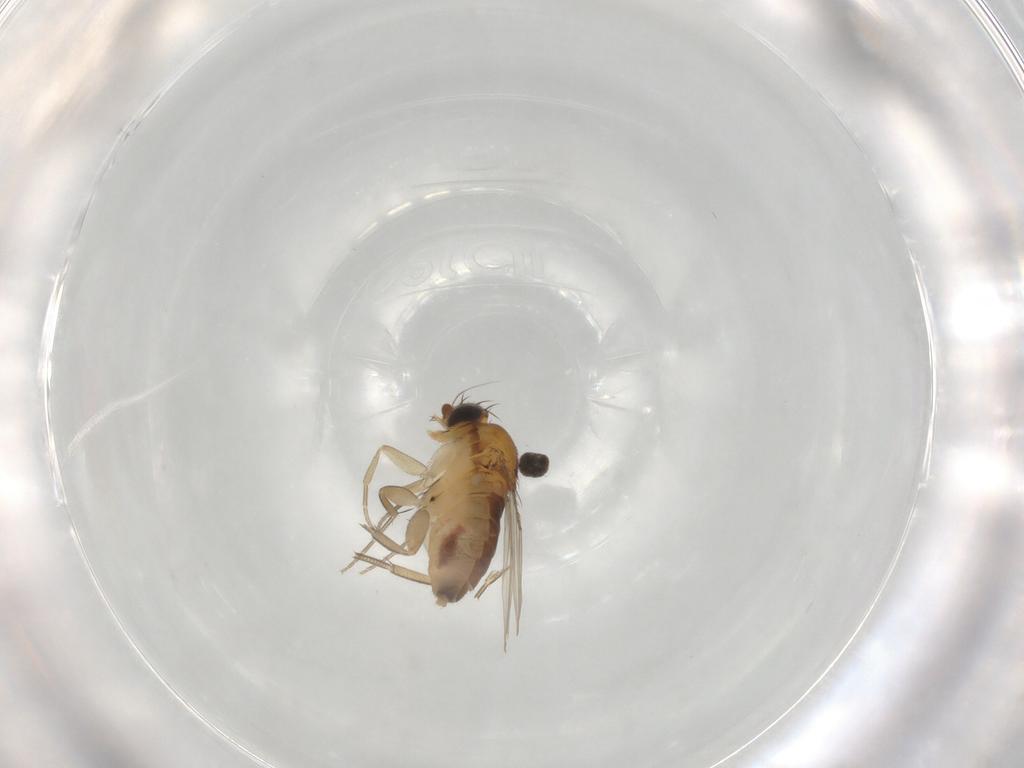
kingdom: Animalia
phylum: Arthropoda
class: Insecta
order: Diptera
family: Phoridae
